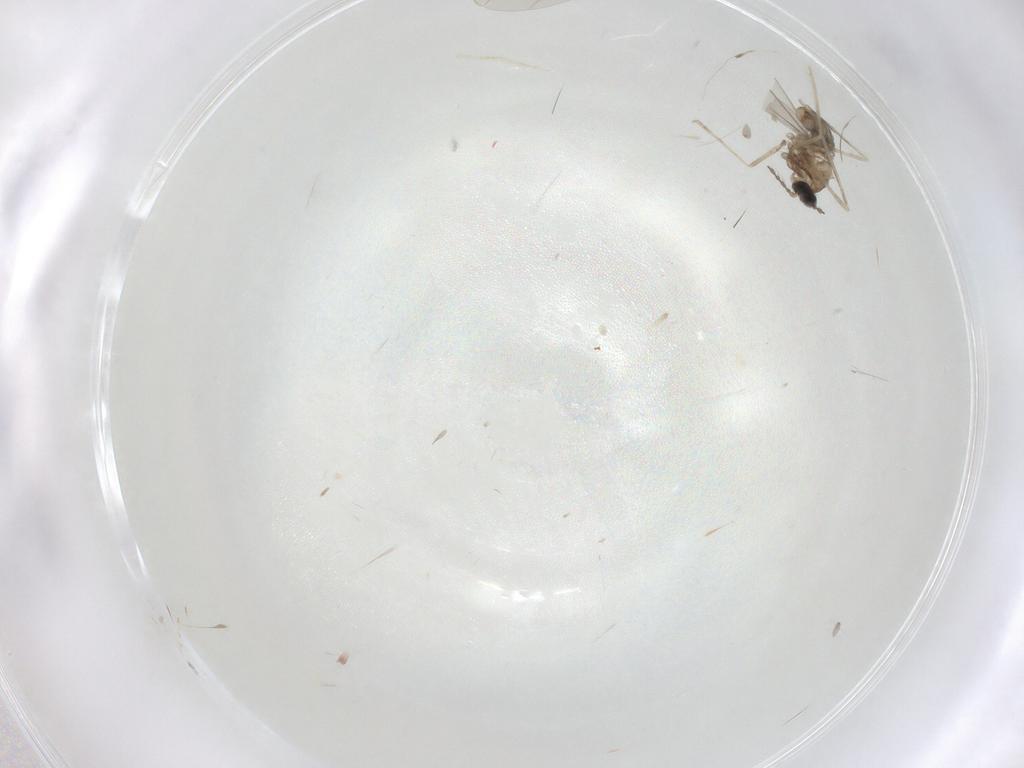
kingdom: Animalia
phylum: Arthropoda
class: Insecta
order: Diptera
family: Cecidomyiidae
